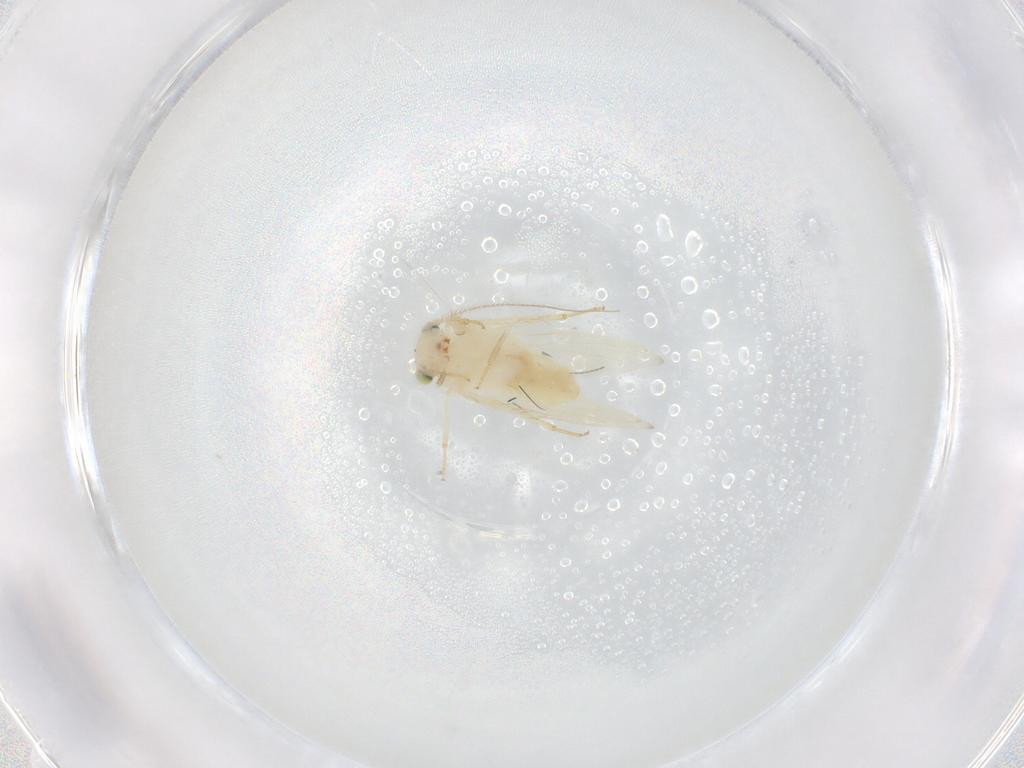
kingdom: Animalia
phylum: Arthropoda
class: Insecta
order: Psocodea
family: Lepidopsocidae
